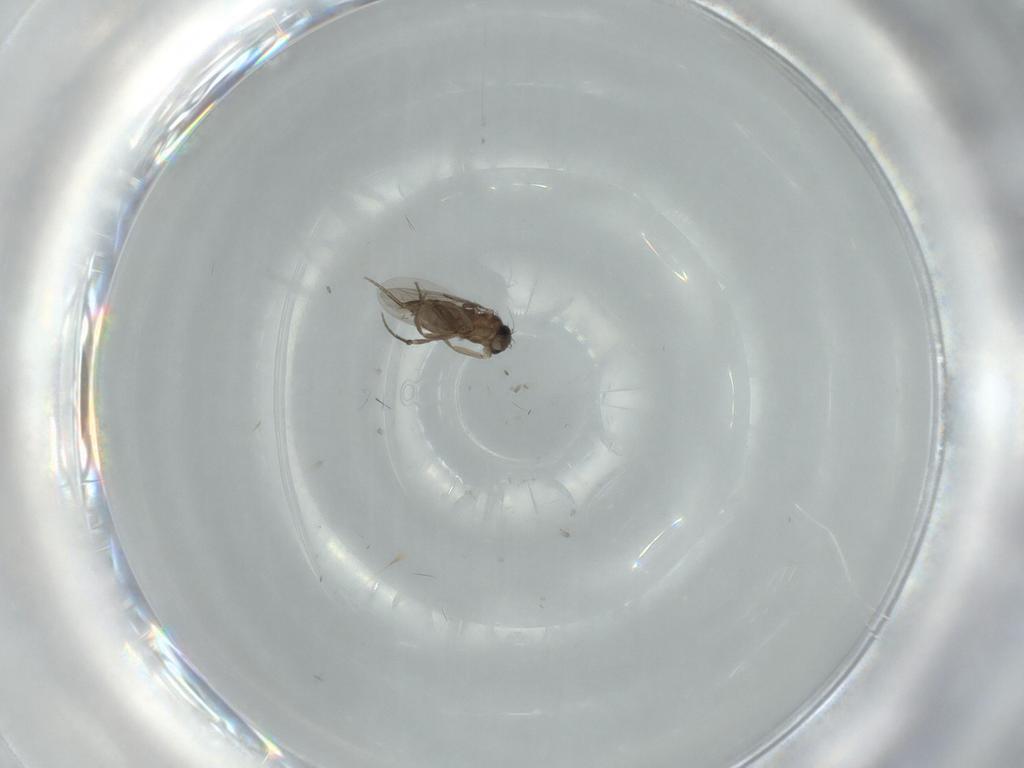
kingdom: Animalia
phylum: Arthropoda
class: Insecta
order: Diptera
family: Phoridae
